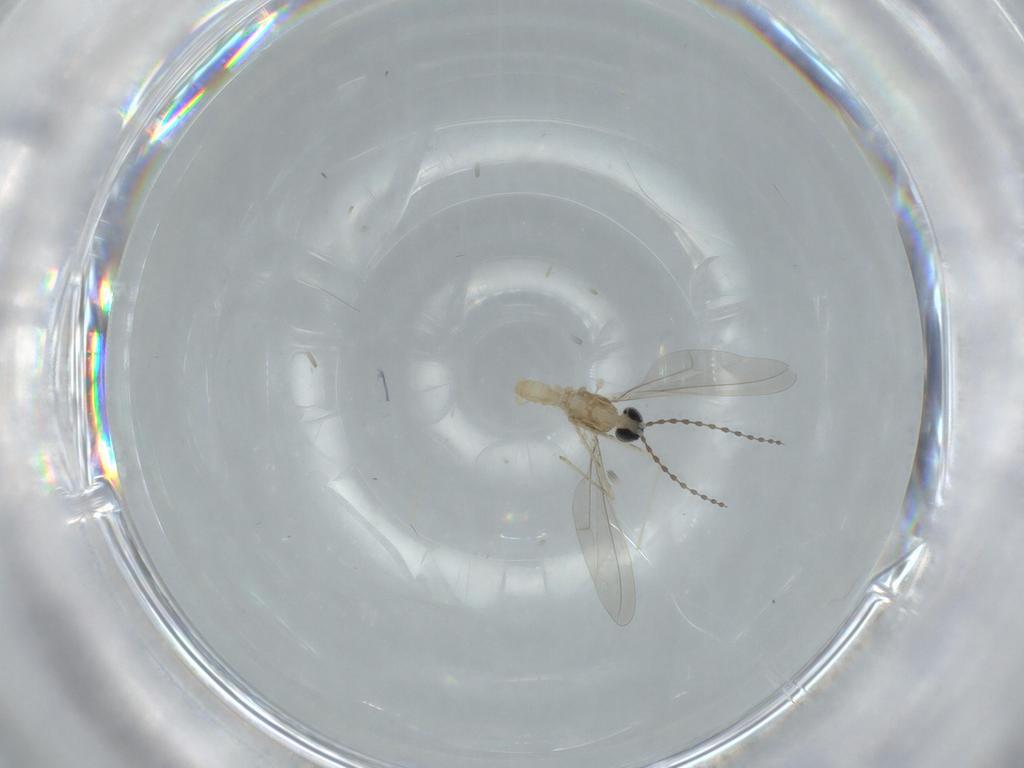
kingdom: Animalia
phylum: Arthropoda
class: Insecta
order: Diptera
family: Cecidomyiidae
